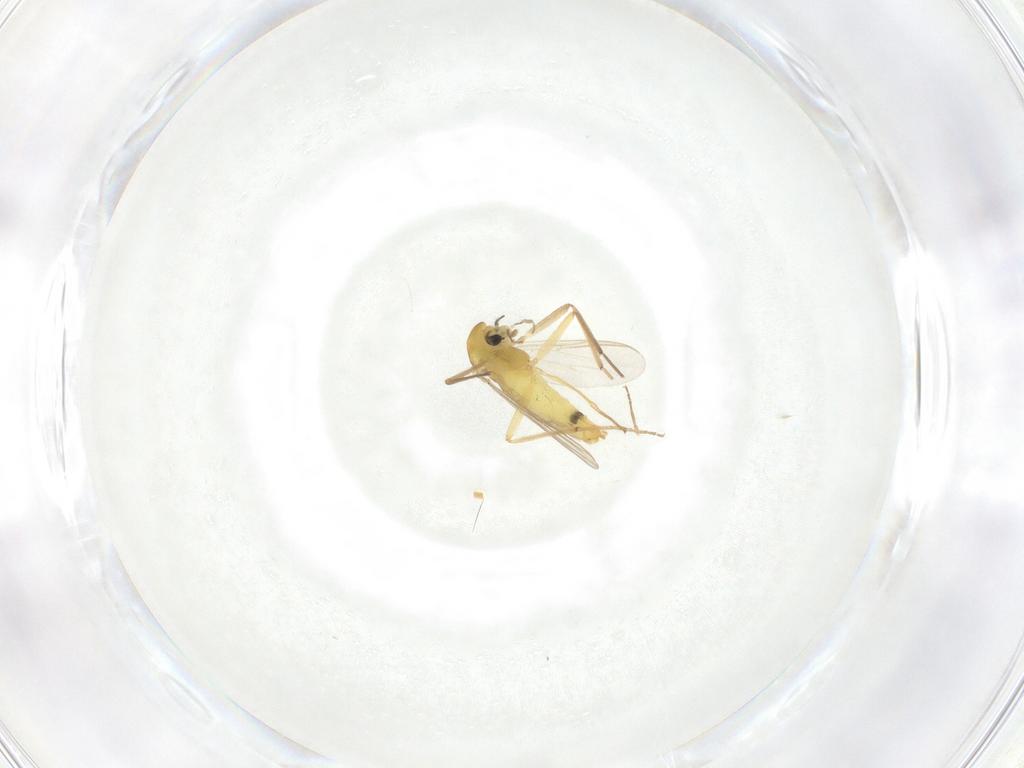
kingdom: Animalia
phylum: Arthropoda
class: Insecta
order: Diptera
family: Chironomidae
